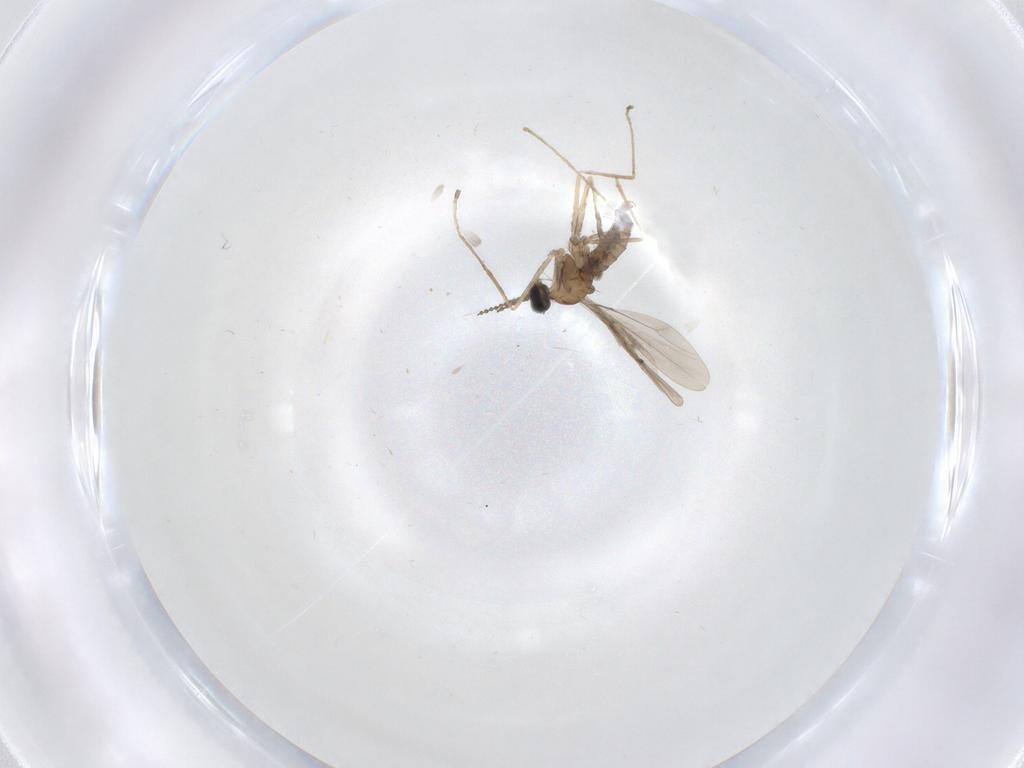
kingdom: Animalia
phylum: Arthropoda
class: Insecta
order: Diptera
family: Cecidomyiidae
